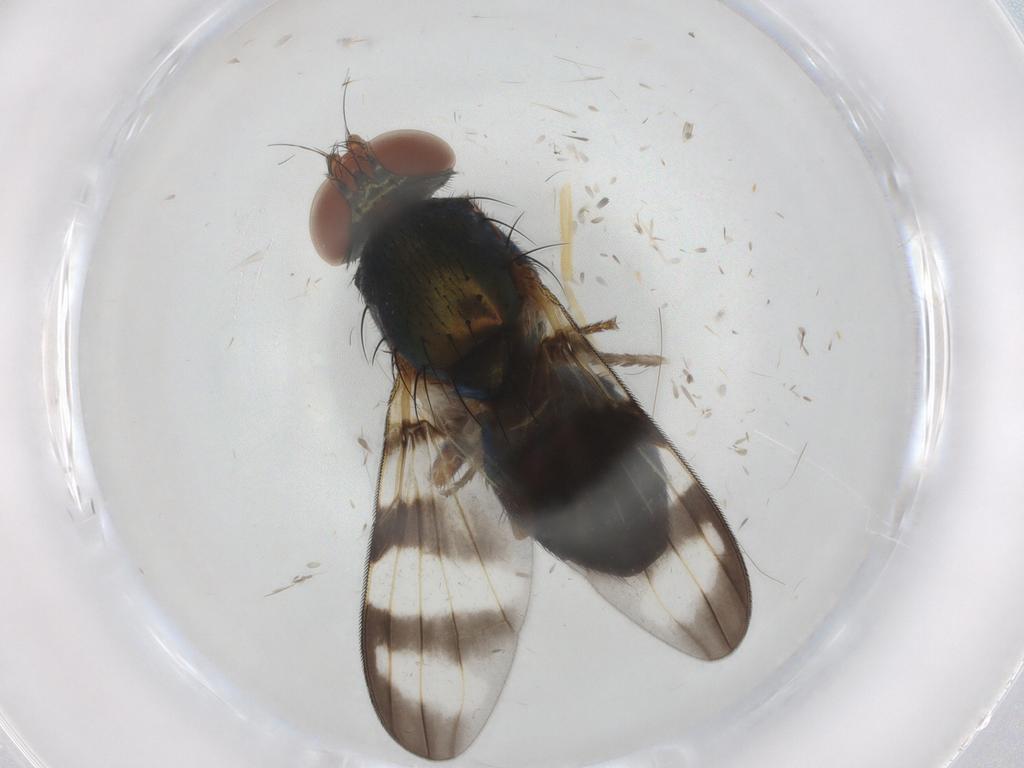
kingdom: Animalia
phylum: Arthropoda
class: Insecta
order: Diptera
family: Ulidiidae
